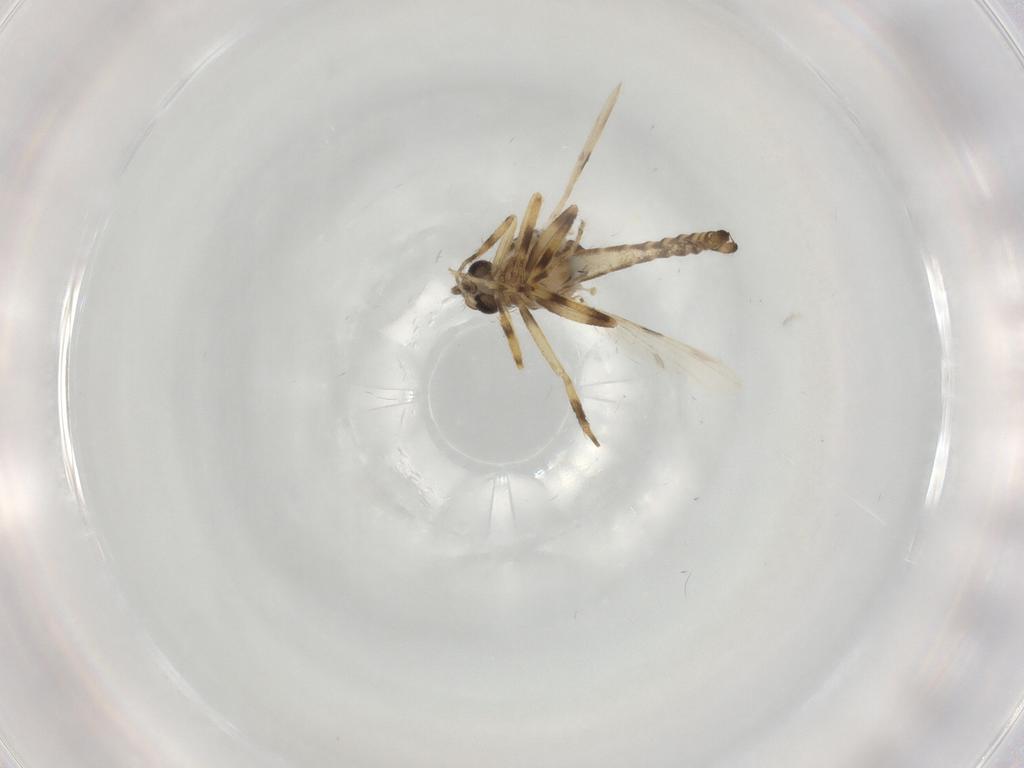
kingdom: Animalia
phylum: Arthropoda
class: Insecta
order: Diptera
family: Ceratopogonidae
